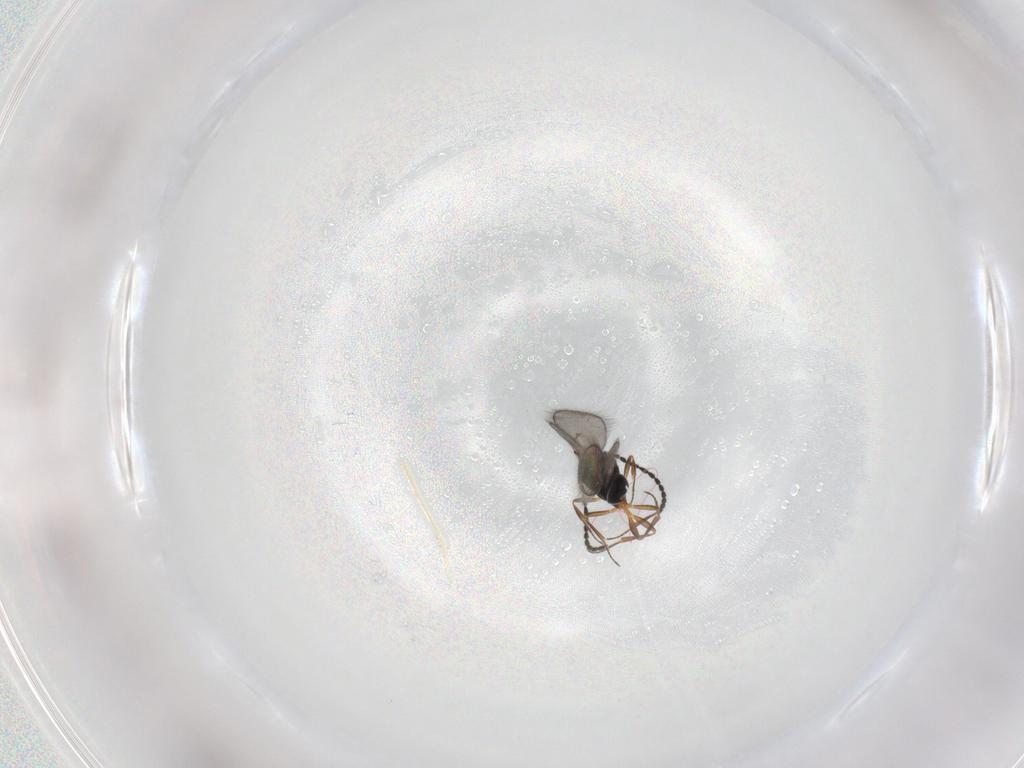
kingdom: Animalia
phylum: Arthropoda
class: Insecta
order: Hymenoptera
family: Scelionidae
